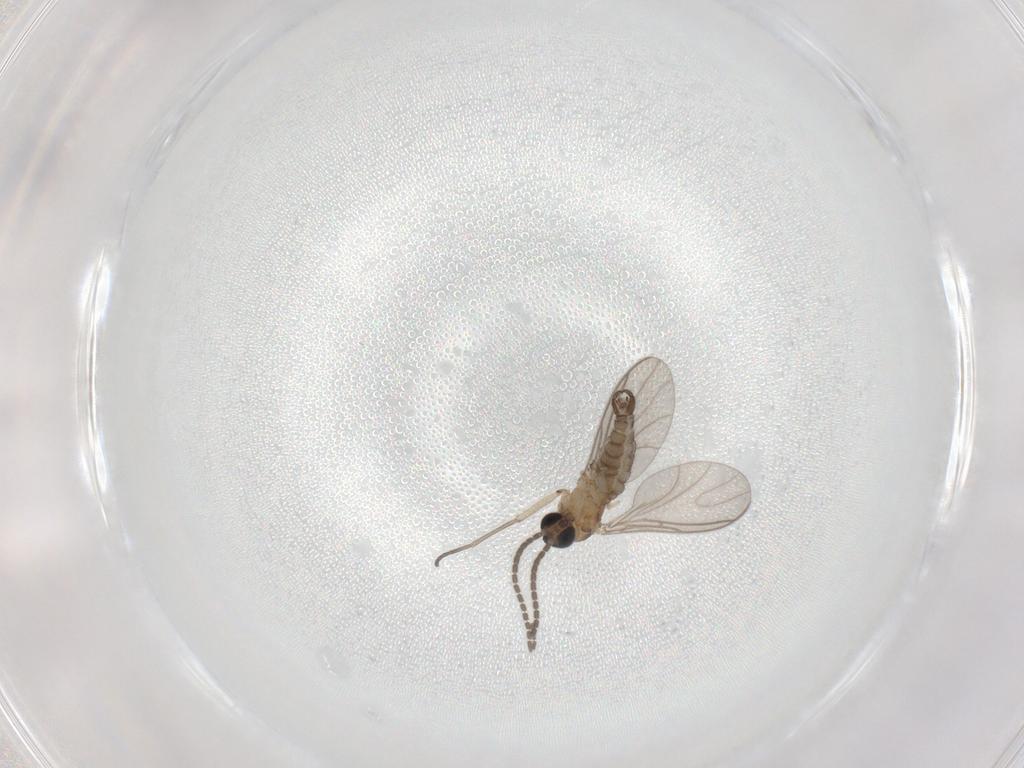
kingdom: Animalia
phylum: Arthropoda
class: Insecta
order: Diptera
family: Sciaridae
